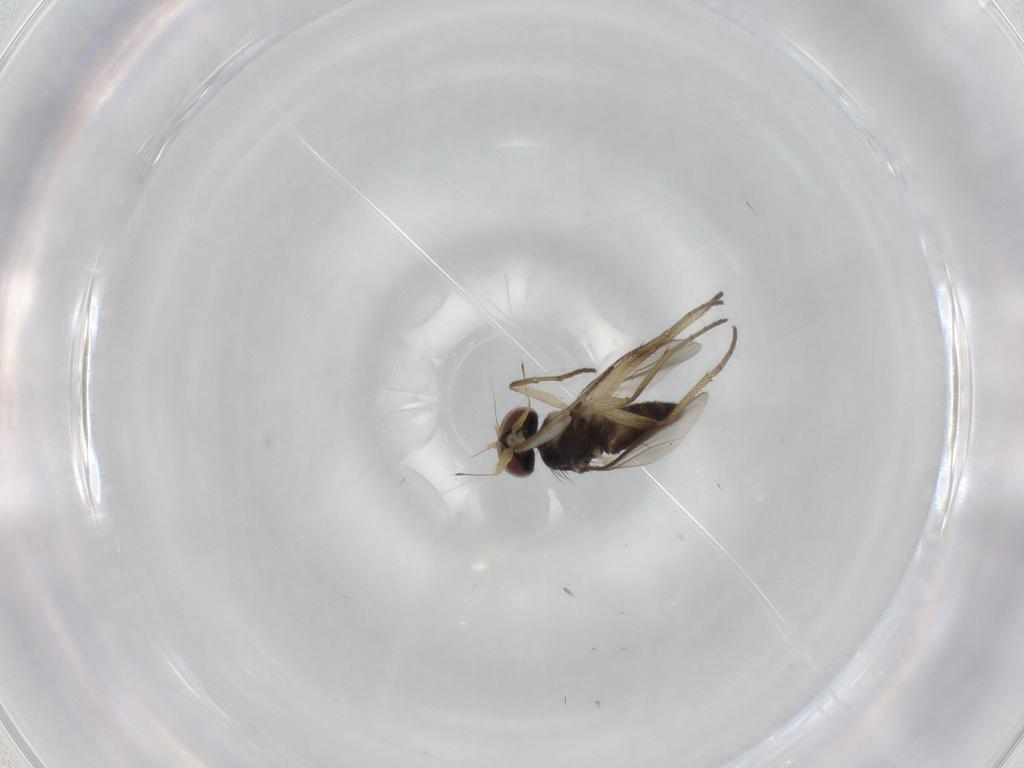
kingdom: Animalia
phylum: Arthropoda
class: Insecta
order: Diptera
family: Dolichopodidae
